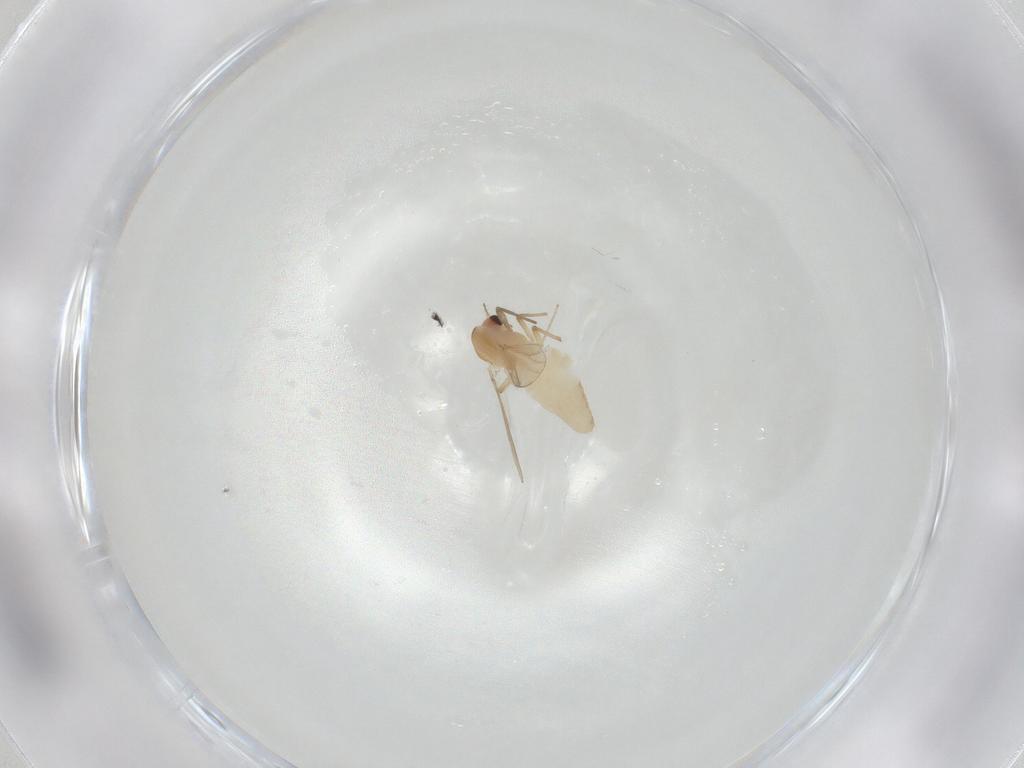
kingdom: Animalia
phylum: Arthropoda
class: Insecta
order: Diptera
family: Chironomidae
